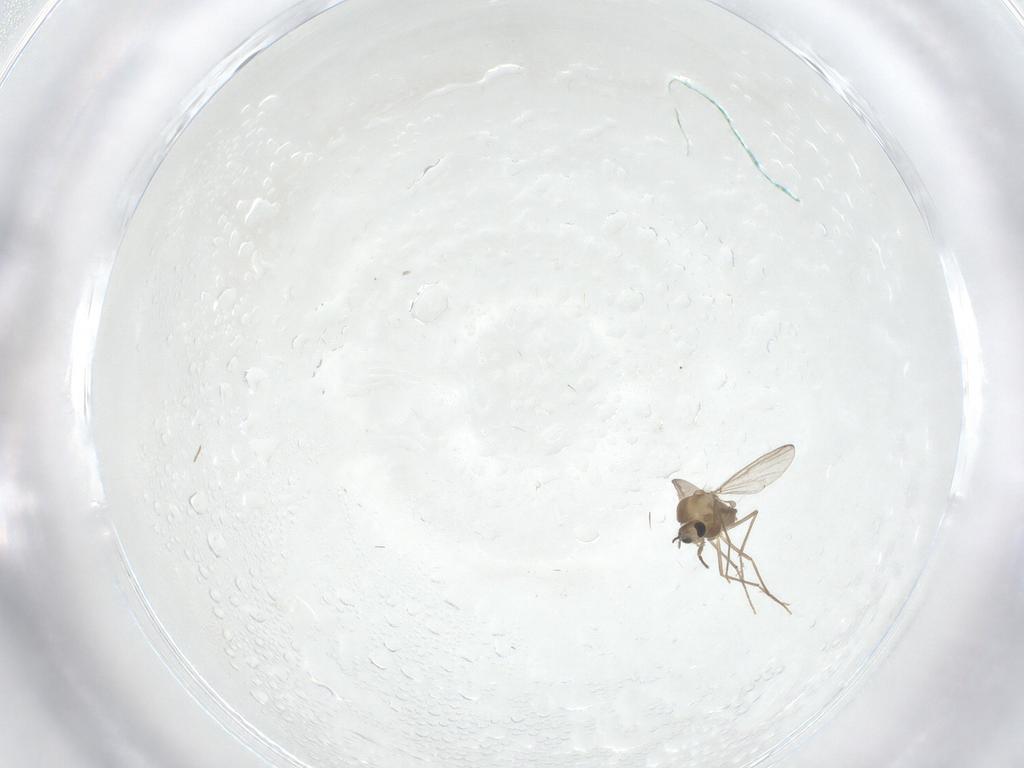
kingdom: Animalia
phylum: Arthropoda
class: Insecta
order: Diptera
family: Chironomidae
